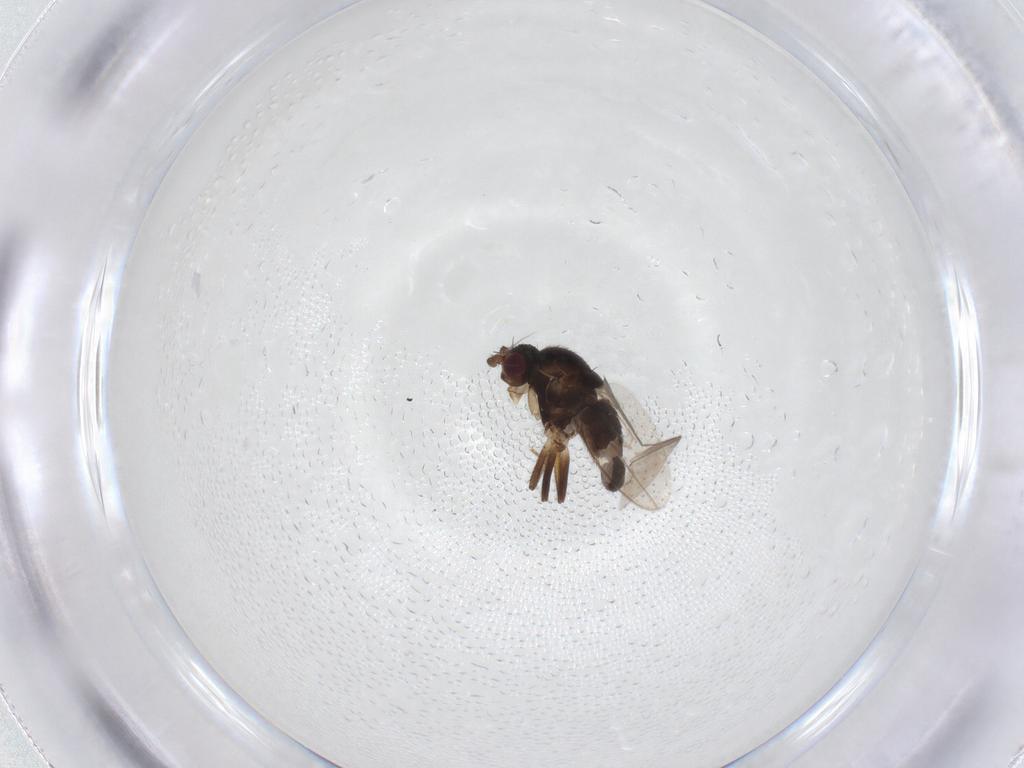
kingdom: Animalia
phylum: Arthropoda
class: Insecta
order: Diptera
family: Sphaeroceridae
